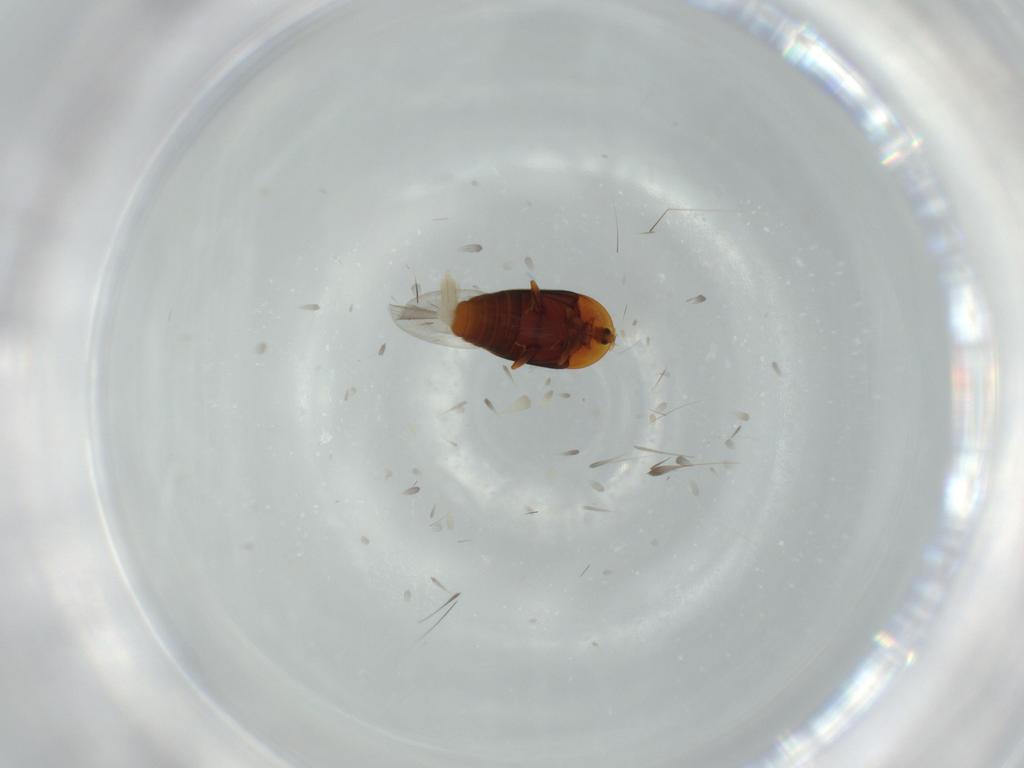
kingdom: Animalia
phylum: Arthropoda
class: Insecta
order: Coleoptera
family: Corylophidae
